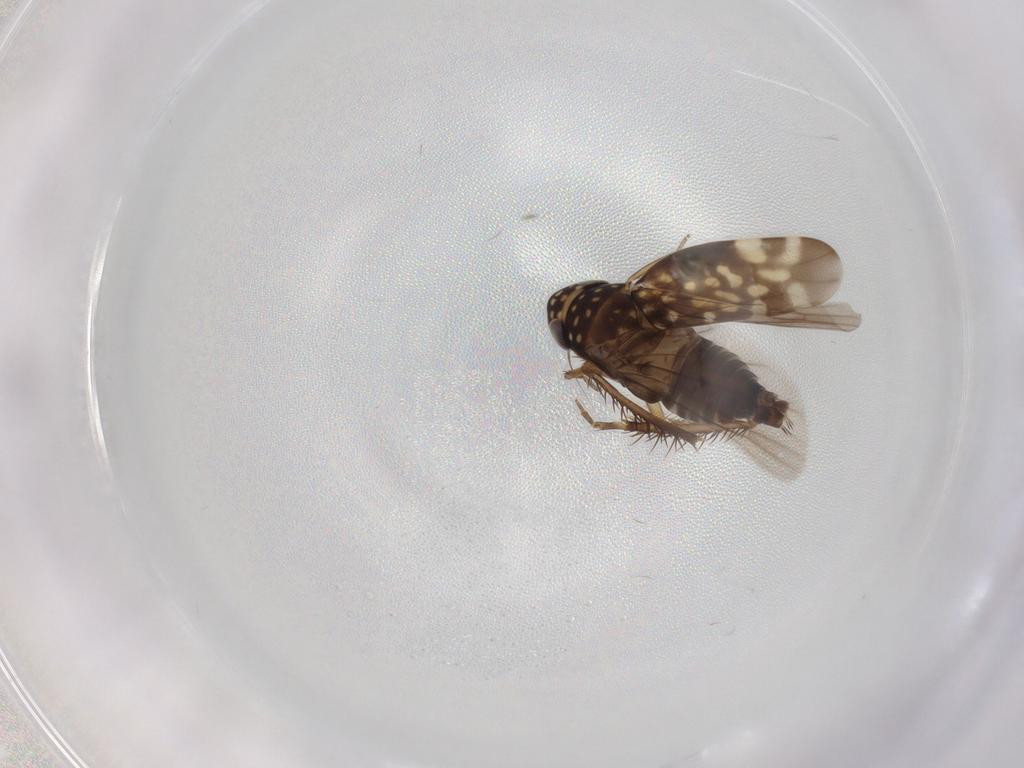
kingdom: Animalia
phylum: Arthropoda
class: Insecta
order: Hemiptera
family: Cicadellidae
